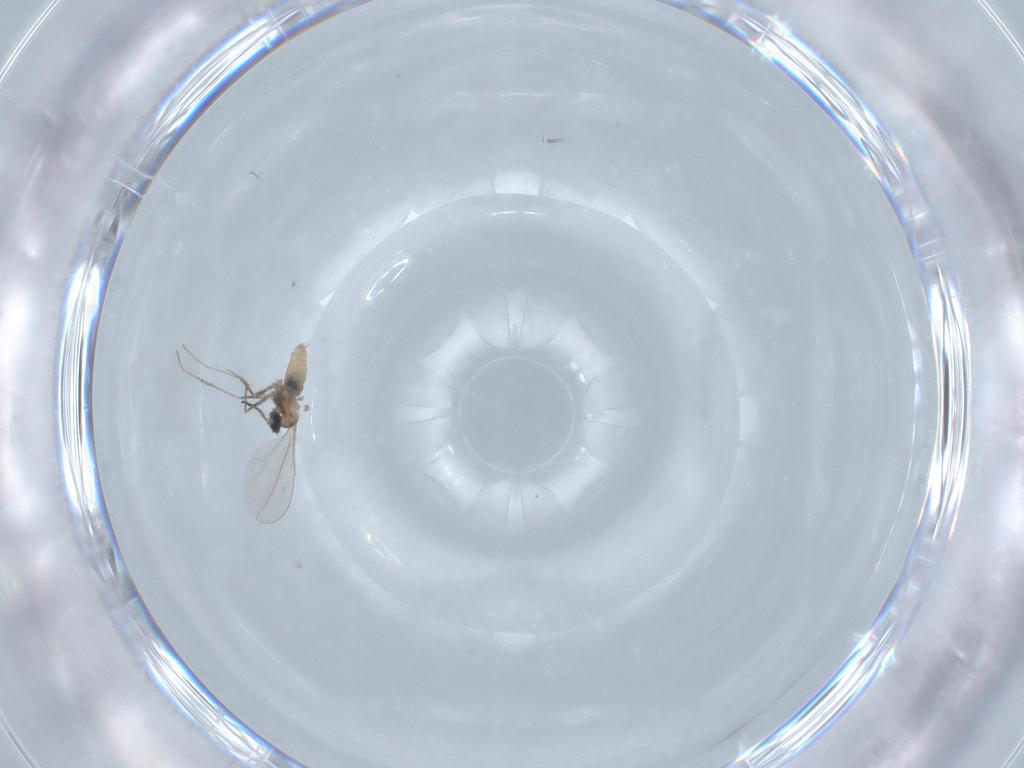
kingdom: Animalia
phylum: Arthropoda
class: Insecta
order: Diptera
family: Cecidomyiidae
